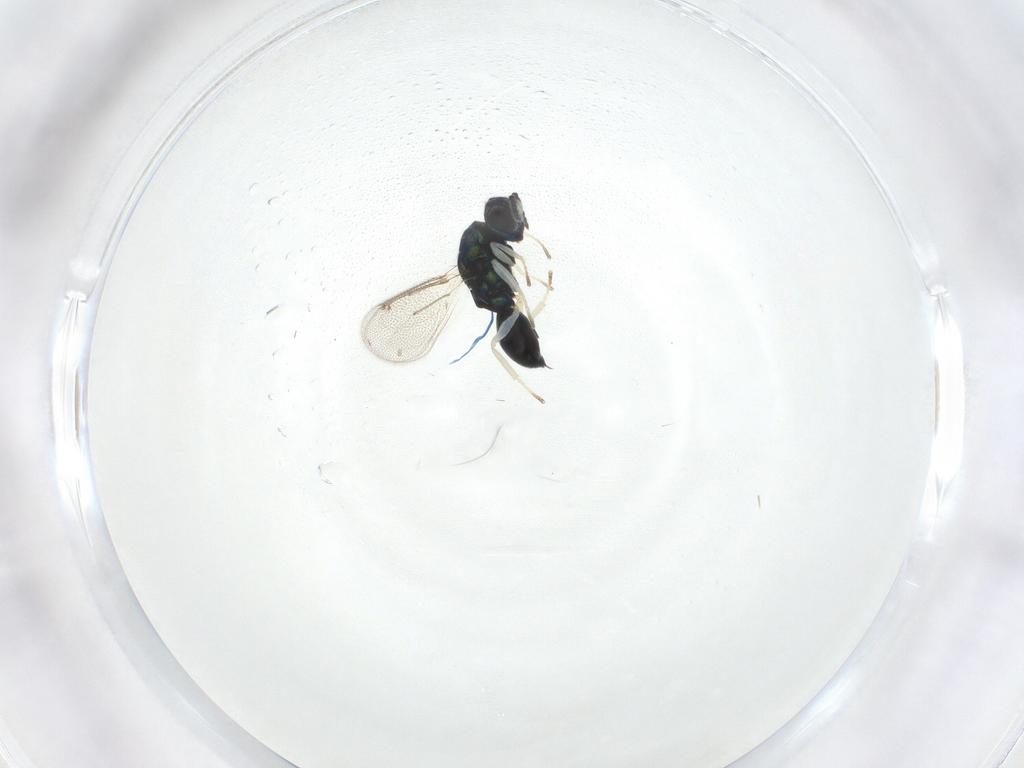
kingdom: Animalia
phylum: Arthropoda
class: Insecta
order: Hymenoptera
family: Eulophidae
